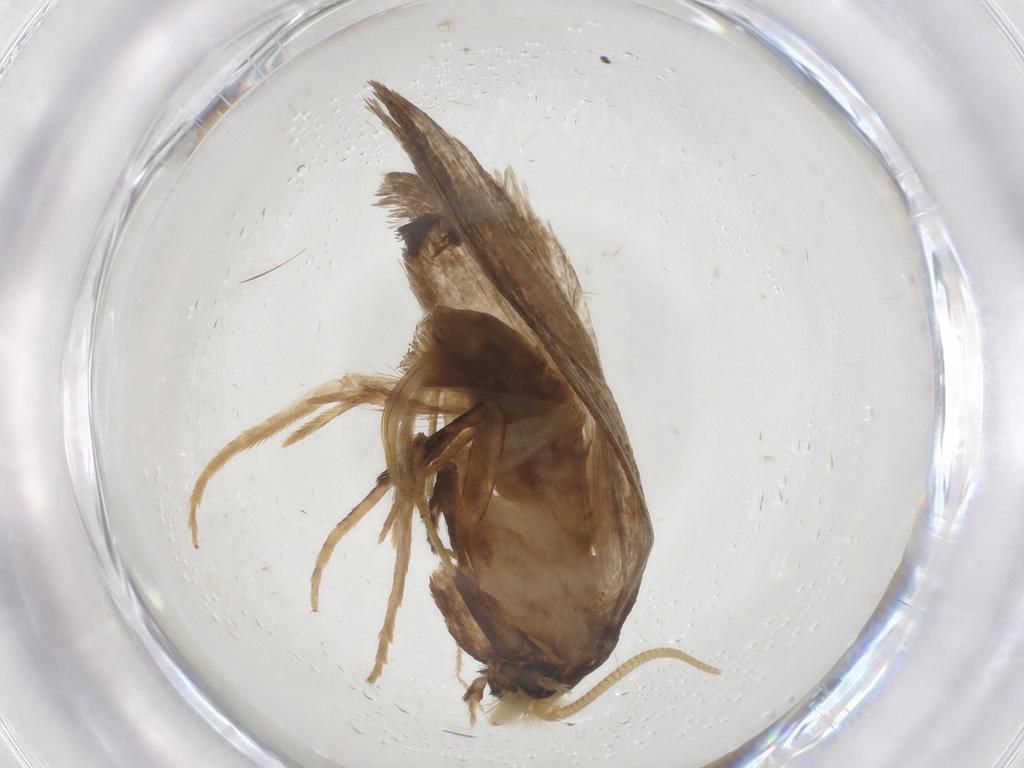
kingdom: Animalia
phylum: Arthropoda
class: Insecta
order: Lepidoptera
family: Tineidae
